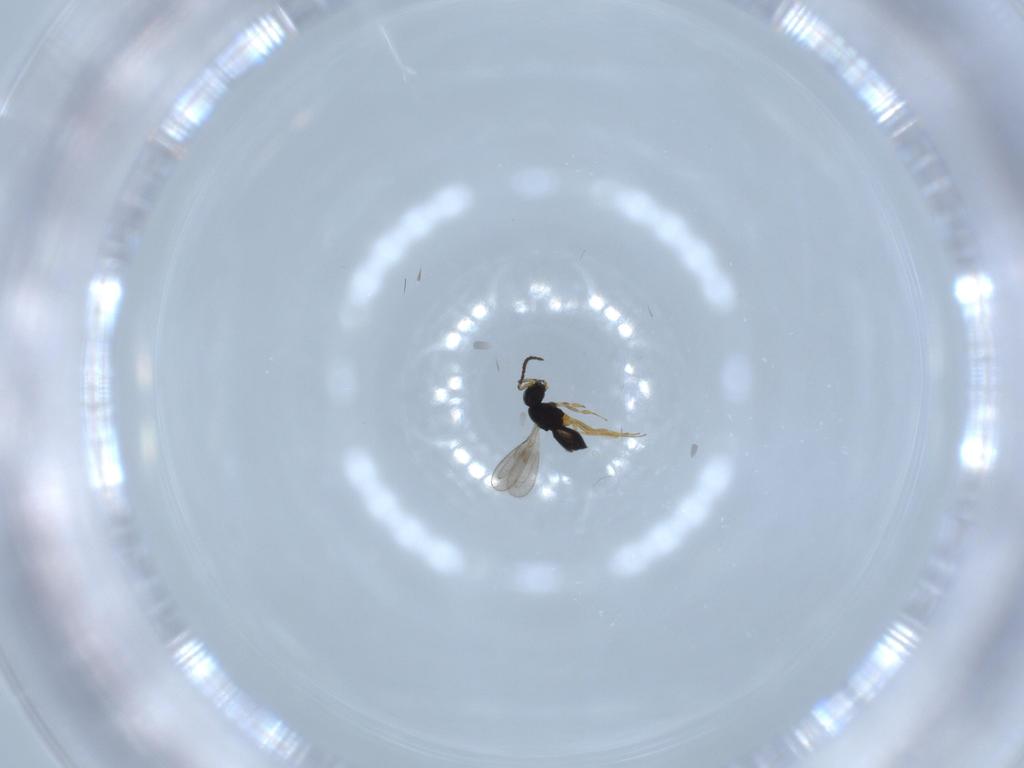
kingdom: Animalia
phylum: Arthropoda
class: Insecta
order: Hymenoptera
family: Scelionidae
